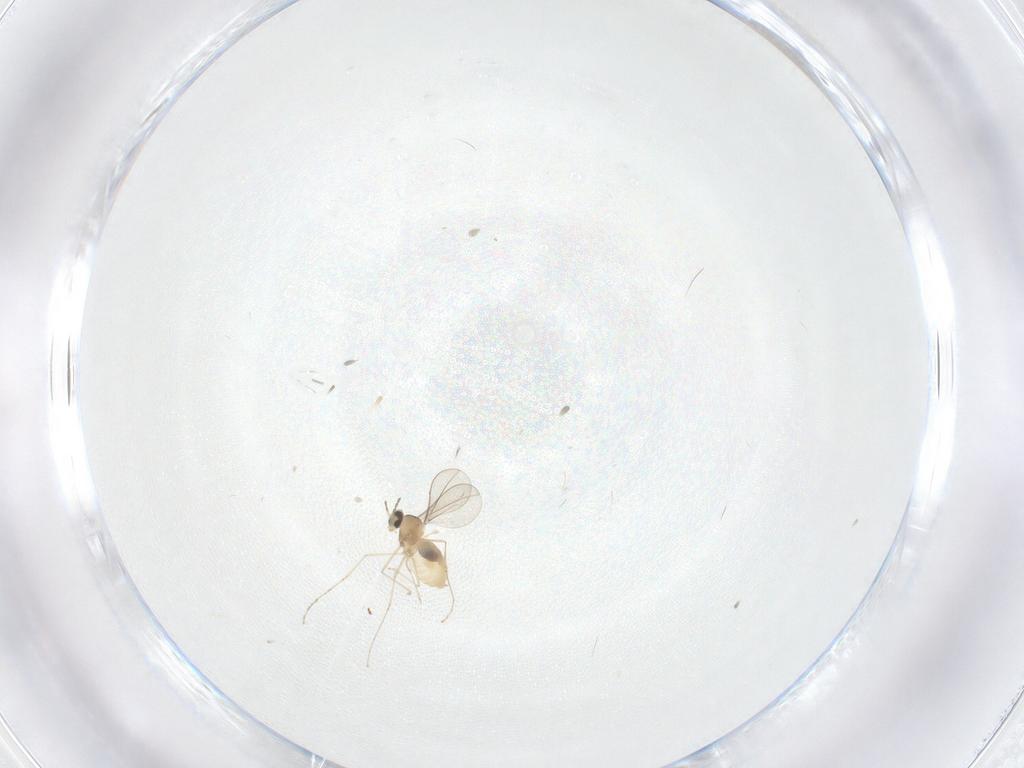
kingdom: Animalia
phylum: Arthropoda
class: Insecta
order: Diptera
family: Cecidomyiidae
